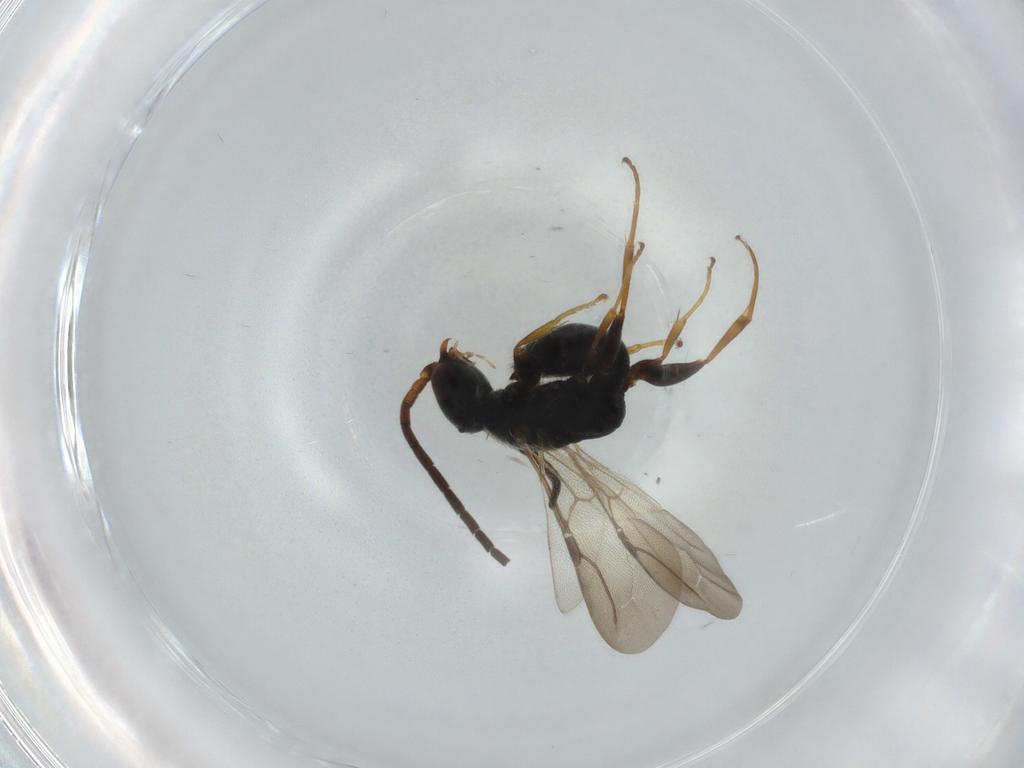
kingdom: Animalia
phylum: Arthropoda
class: Insecta
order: Hymenoptera
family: Bethylidae
